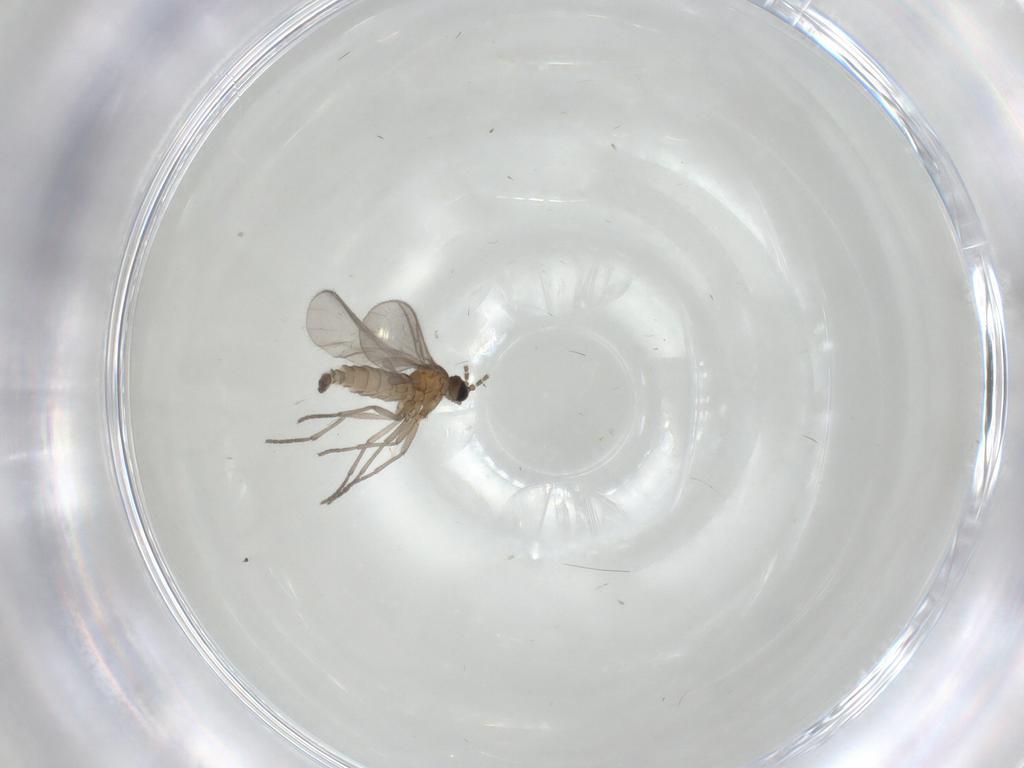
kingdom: Animalia
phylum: Arthropoda
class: Insecta
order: Diptera
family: Sciaridae
